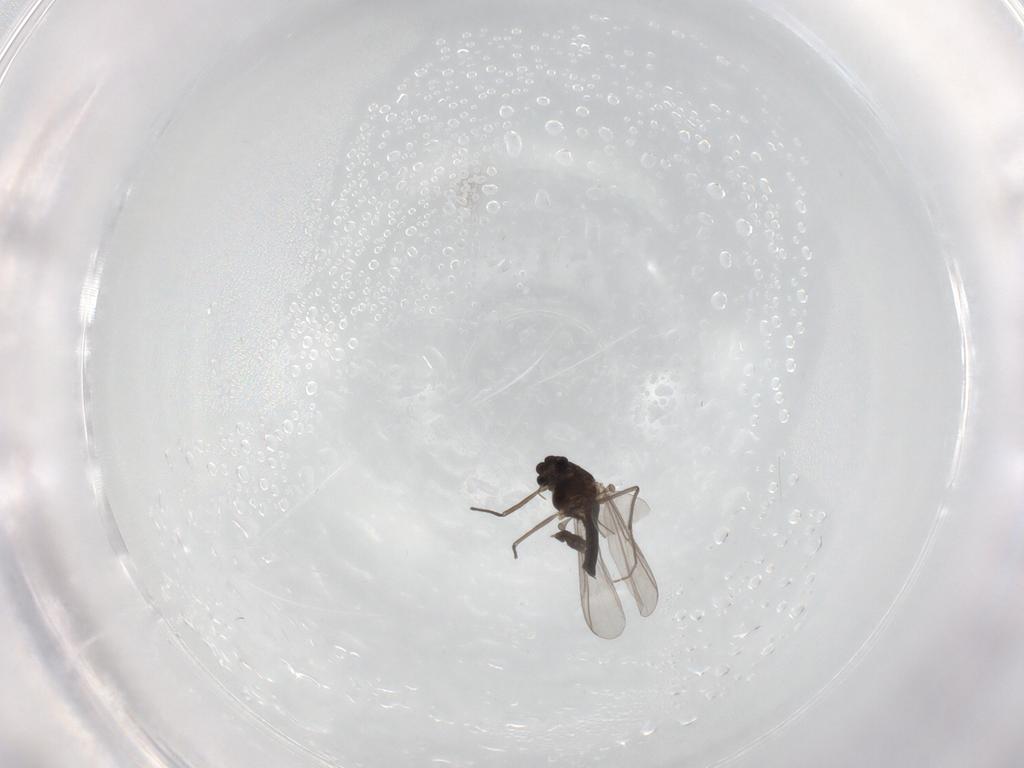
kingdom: Animalia
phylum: Arthropoda
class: Insecta
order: Diptera
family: Chironomidae
